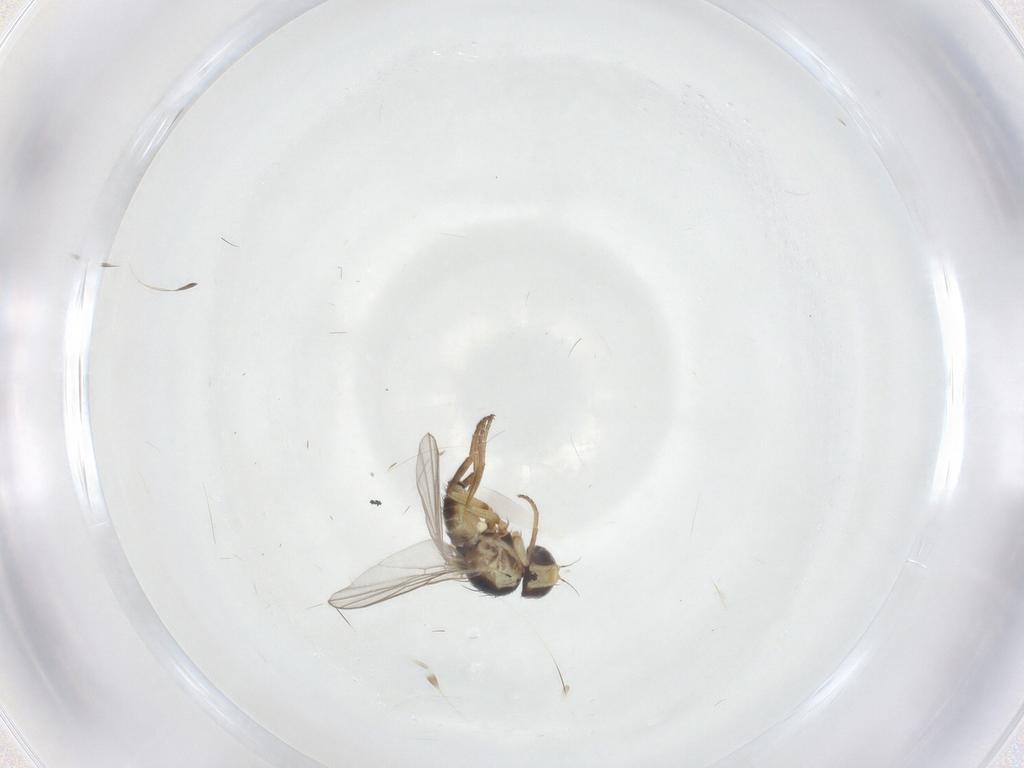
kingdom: Animalia
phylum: Arthropoda
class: Insecta
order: Diptera
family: Agromyzidae
